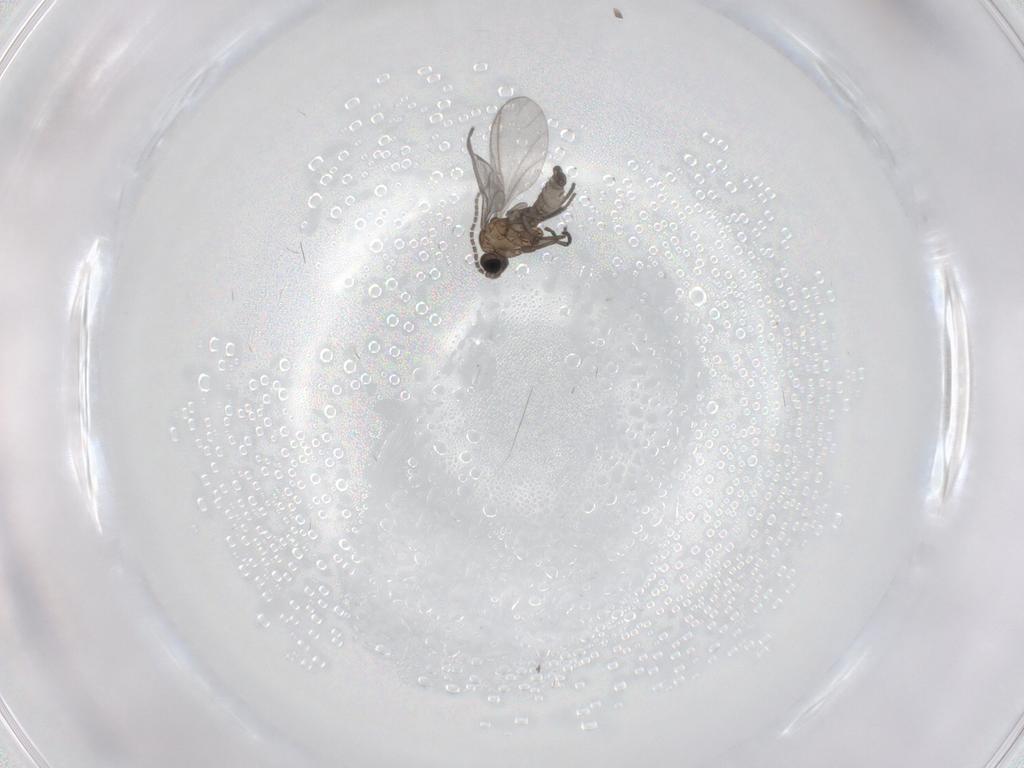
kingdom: Animalia
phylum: Arthropoda
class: Insecta
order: Diptera
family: Sciaridae
